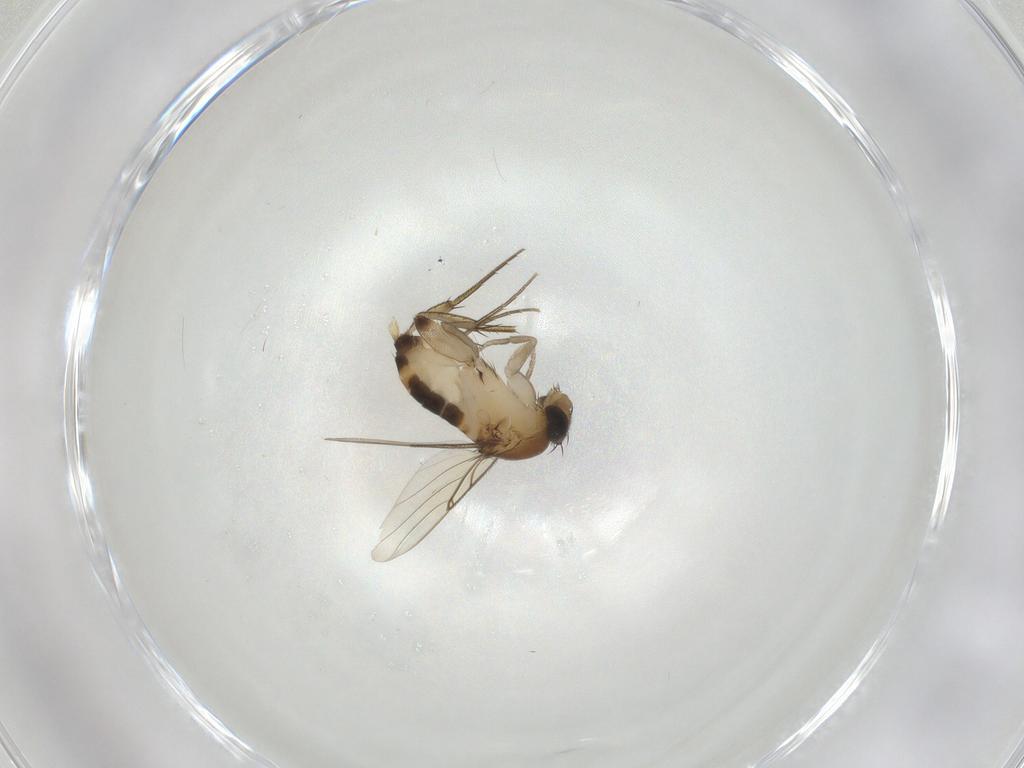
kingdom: Animalia
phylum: Arthropoda
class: Insecta
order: Diptera
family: Phoridae
